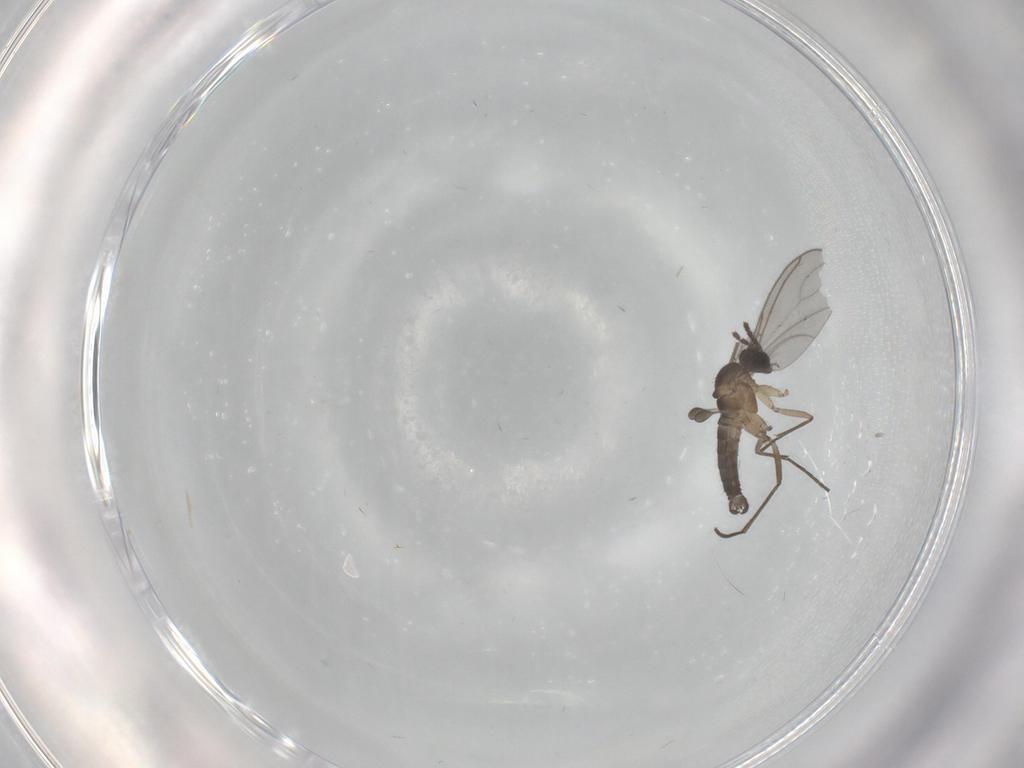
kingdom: Animalia
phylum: Arthropoda
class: Insecta
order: Diptera
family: Sciaridae
